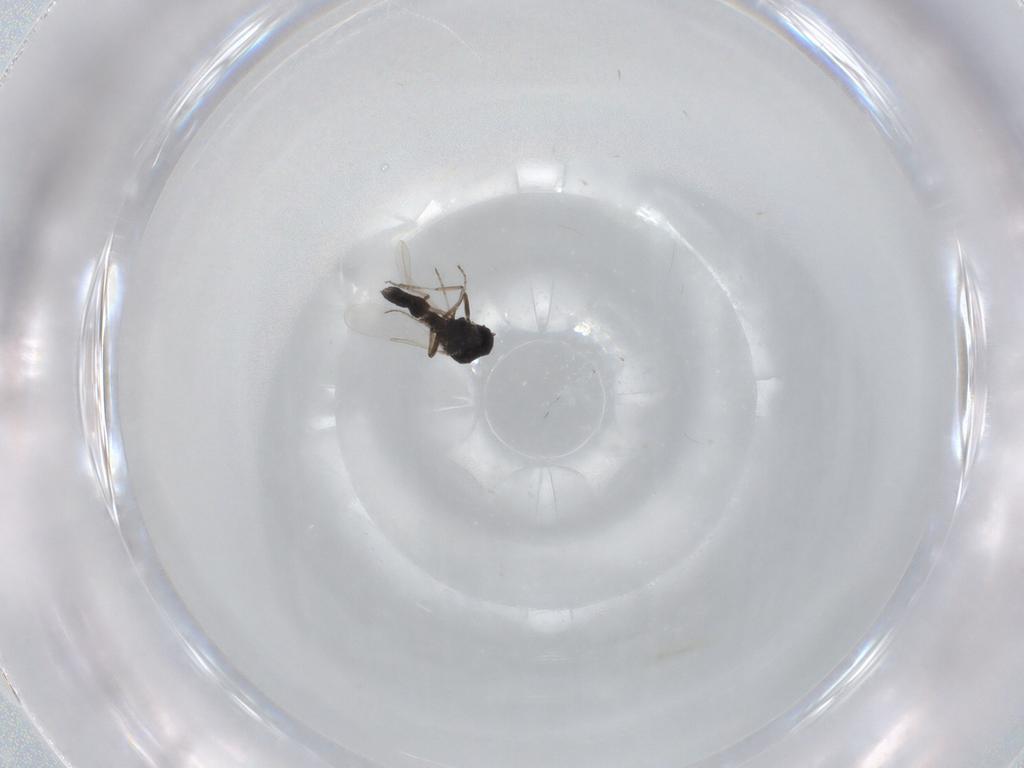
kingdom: Animalia
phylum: Arthropoda
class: Insecta
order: Diptera
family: Ceratopogonidae
